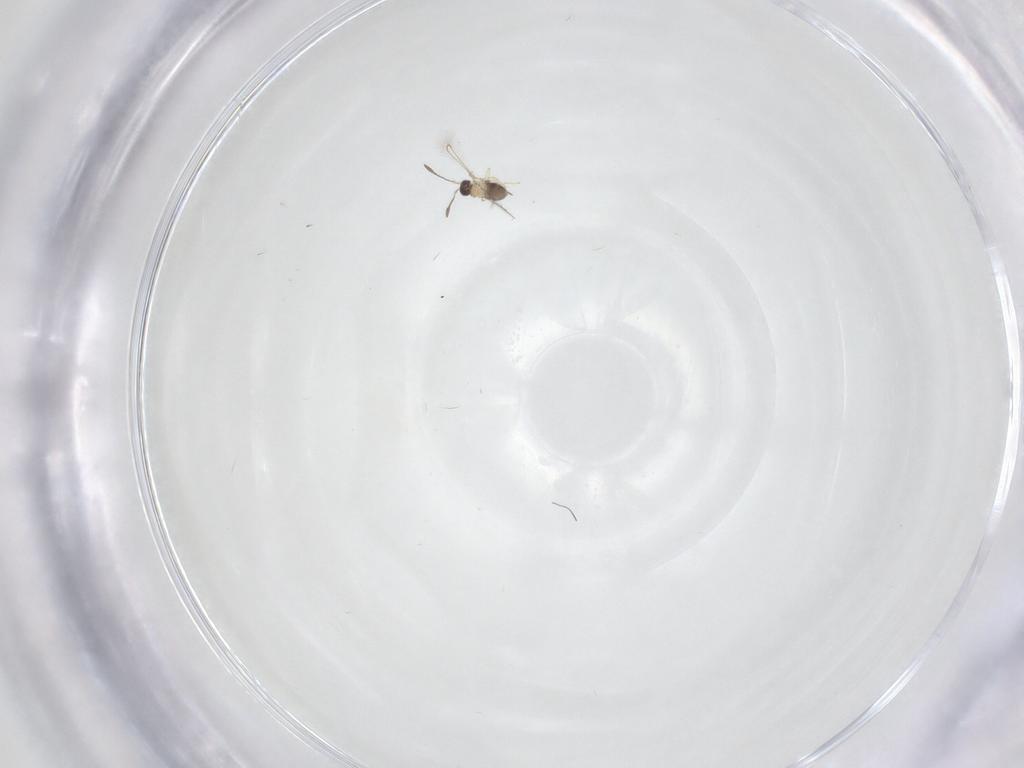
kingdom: Animalia
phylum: Arthropoda
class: Insecta
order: Hymenoptera
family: Mymaridae
